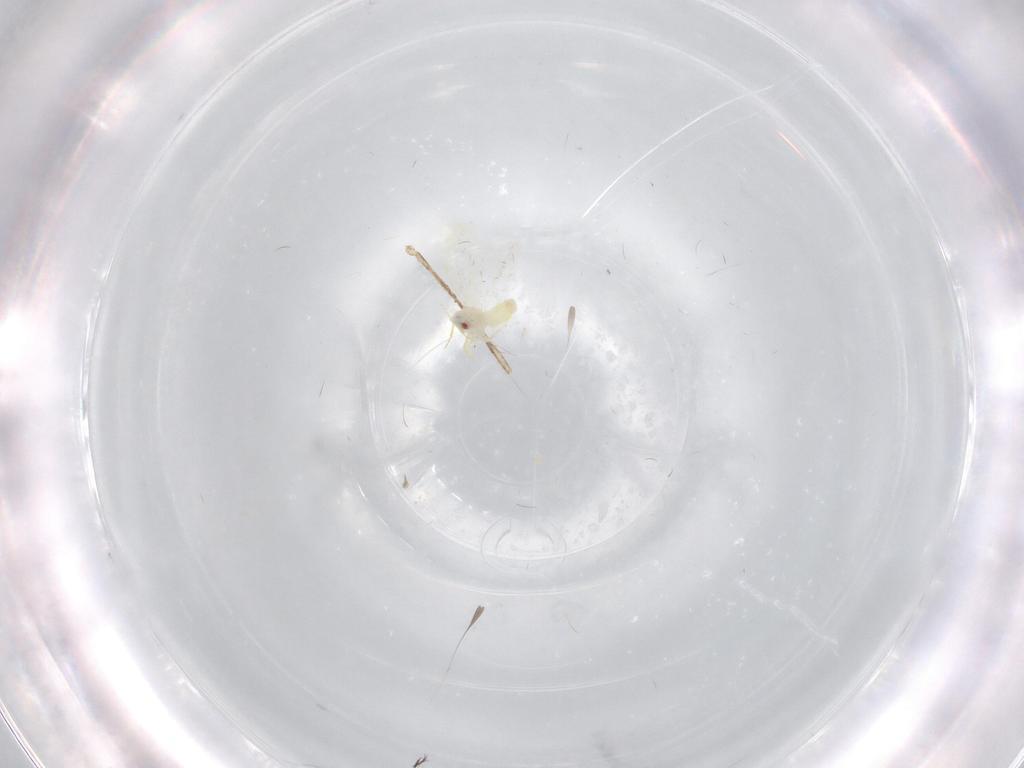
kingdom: Animalia
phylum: Arthropoda
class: Insecta
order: Hemiptera
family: Aleyrodidae
